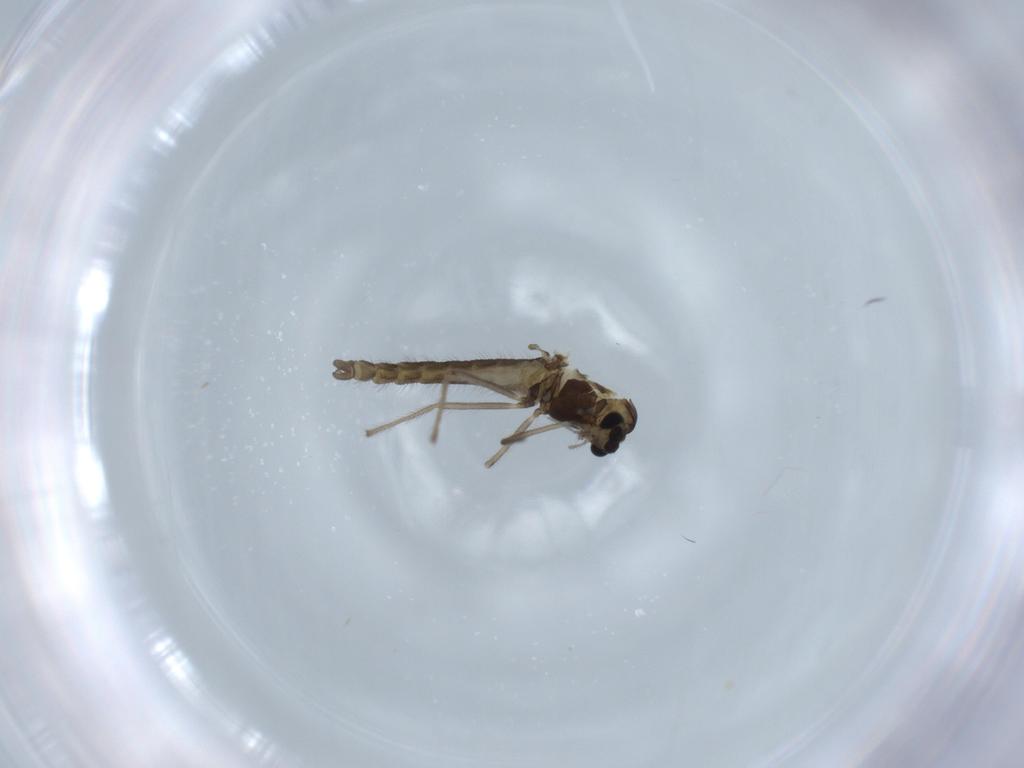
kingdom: Animalia
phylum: Arthropoda
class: Insecta
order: Diptera
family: Chironomidae
